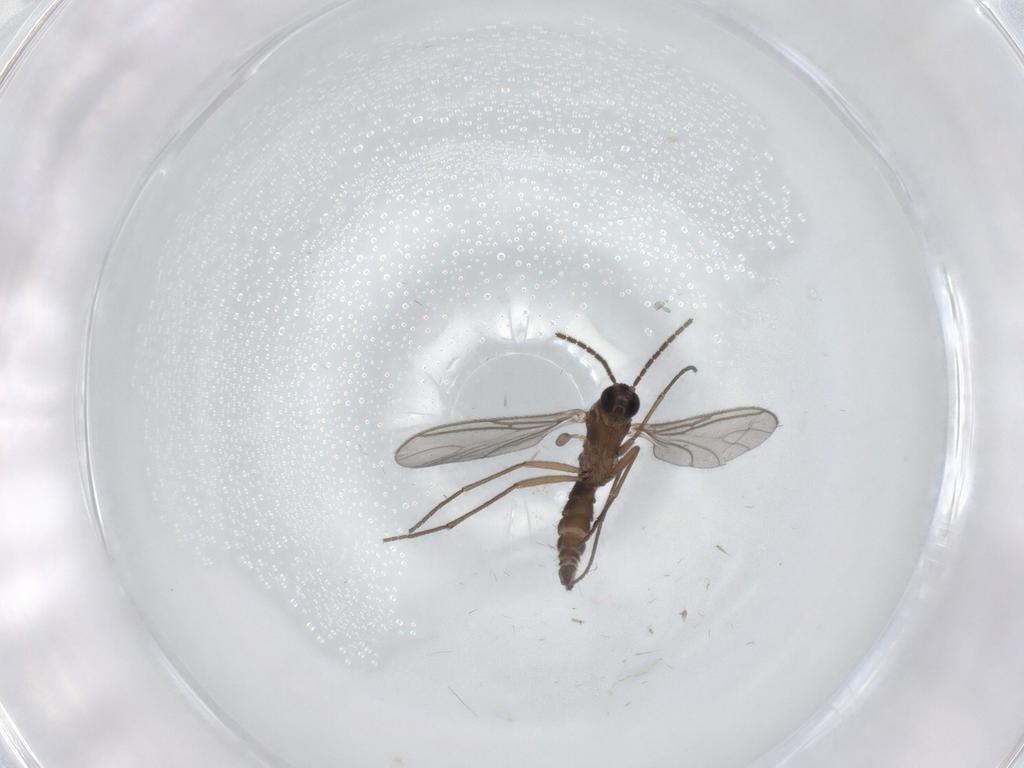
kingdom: Animalia
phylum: Arthropoda
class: Insecta
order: Diptera
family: Sciaridae
